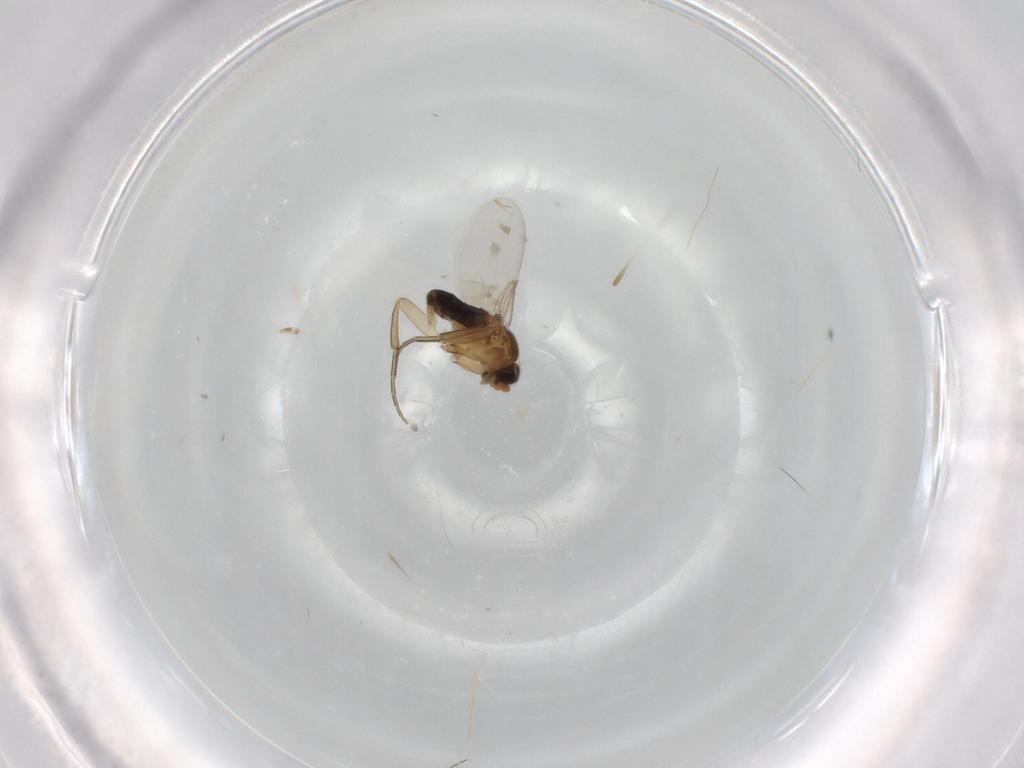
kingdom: Animalia
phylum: Arthropoda
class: Insecta
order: Diptera
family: Phoridae
